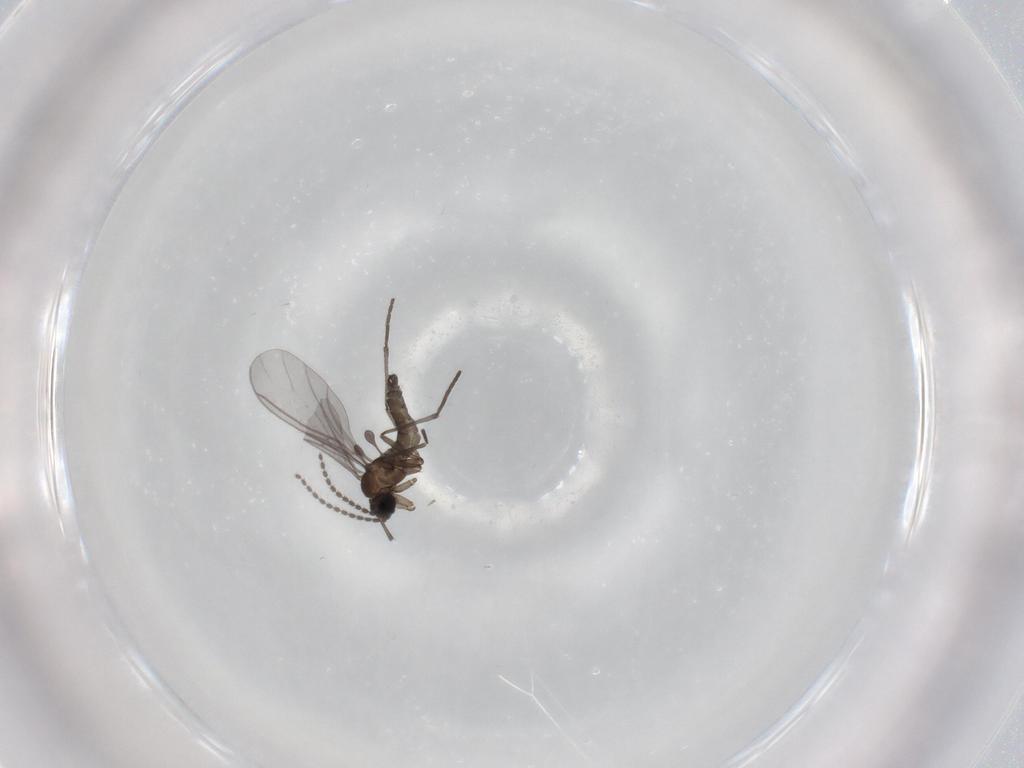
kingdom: Animalia
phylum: Arthropoda
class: Insecta
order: Diptera
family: Sciaridae
